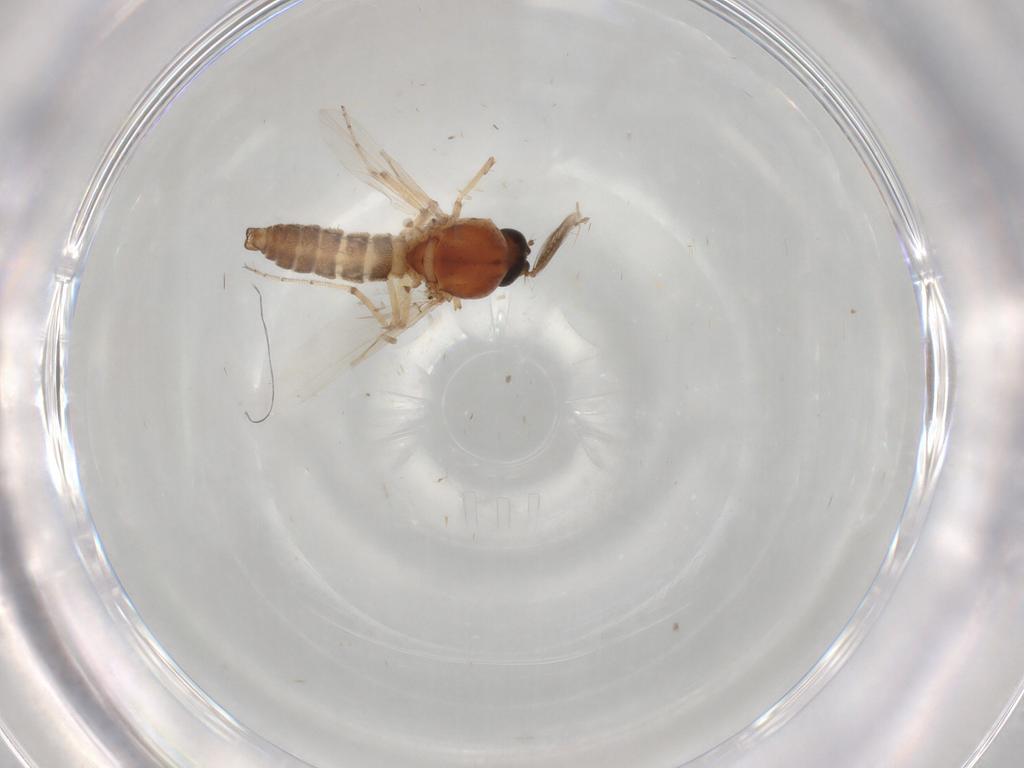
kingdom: Animalia
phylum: Arthropoda
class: Insecta
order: Diptera
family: Ceratopogonidae
